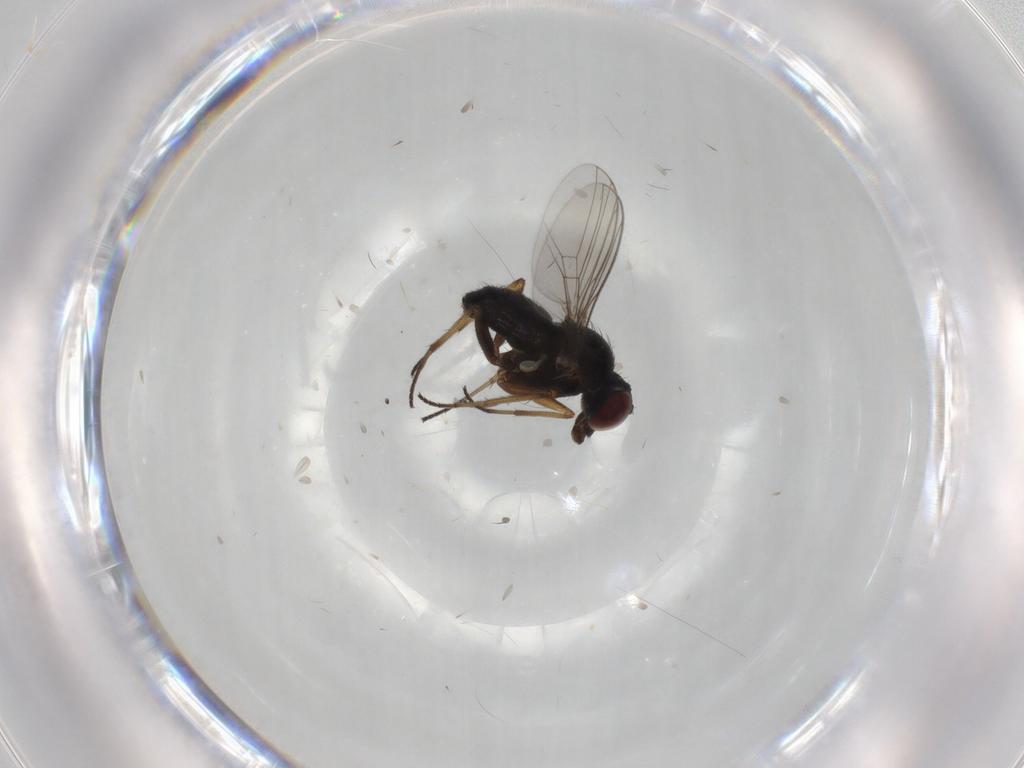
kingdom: Animalia
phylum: Arthropoda
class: Insecta
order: Diptera
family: Dolichopodidae
